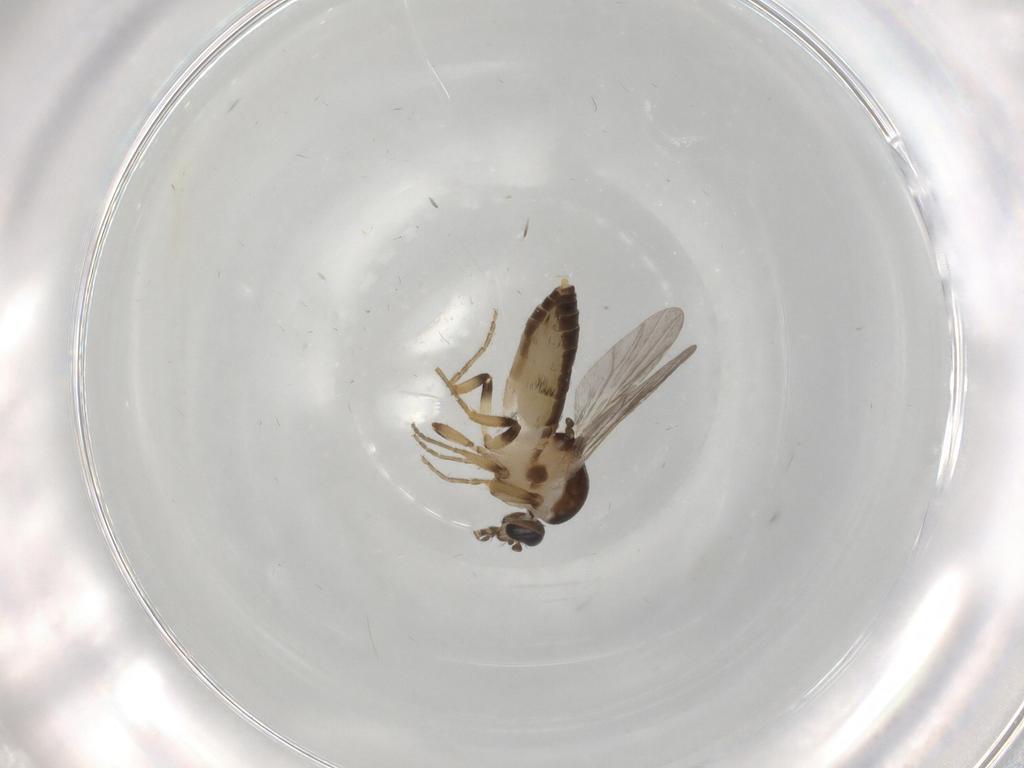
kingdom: Animalia
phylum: Arthropoda
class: Insecta
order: Diptera
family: Ceratopogonidae
